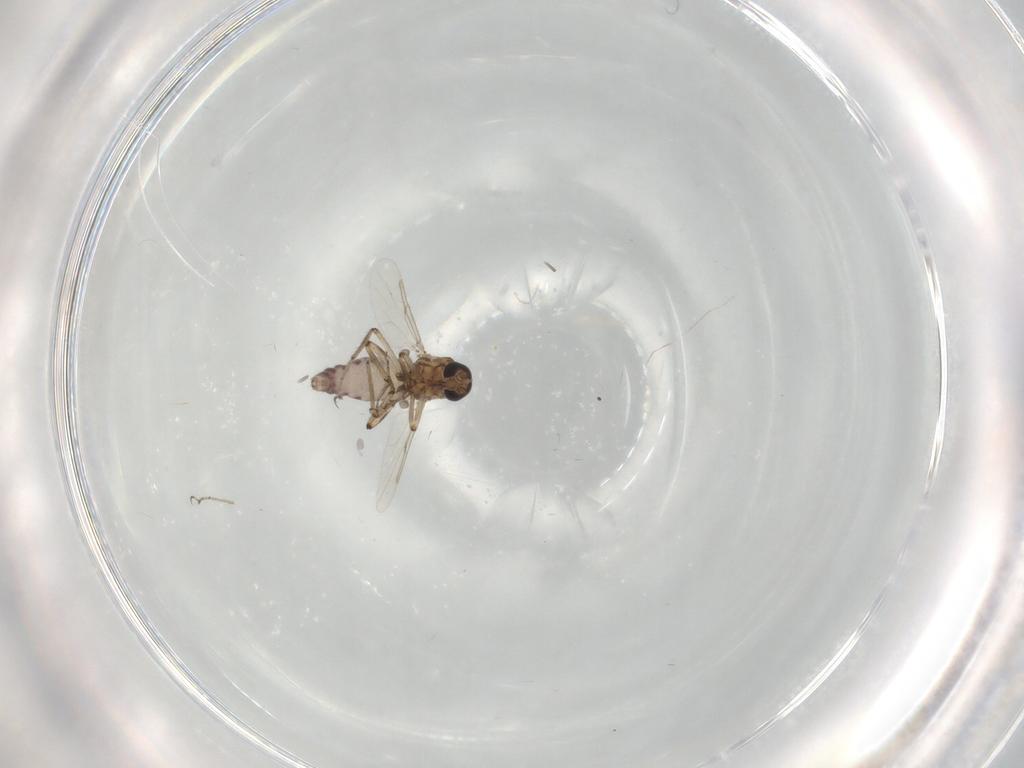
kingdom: Animalia
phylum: Arthropoda
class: Insecta
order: Diptera
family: Ceratopogonidae
